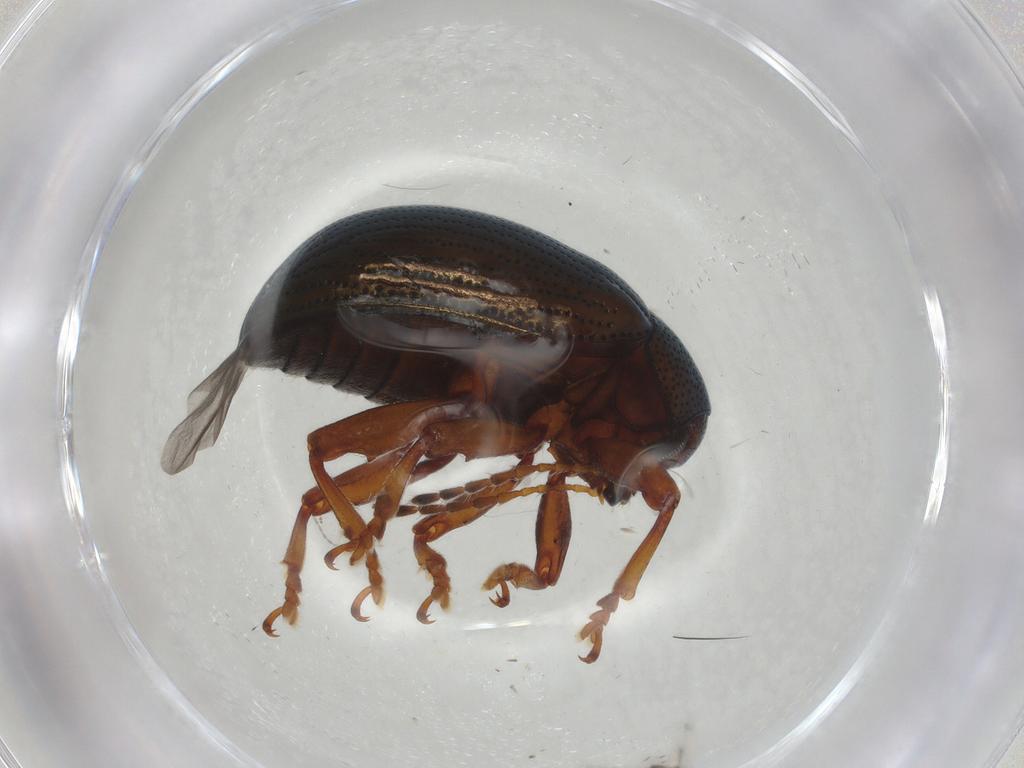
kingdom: Animalia
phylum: Arthropoda
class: Insecta
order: Coleoptera
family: Chrysomelidae
